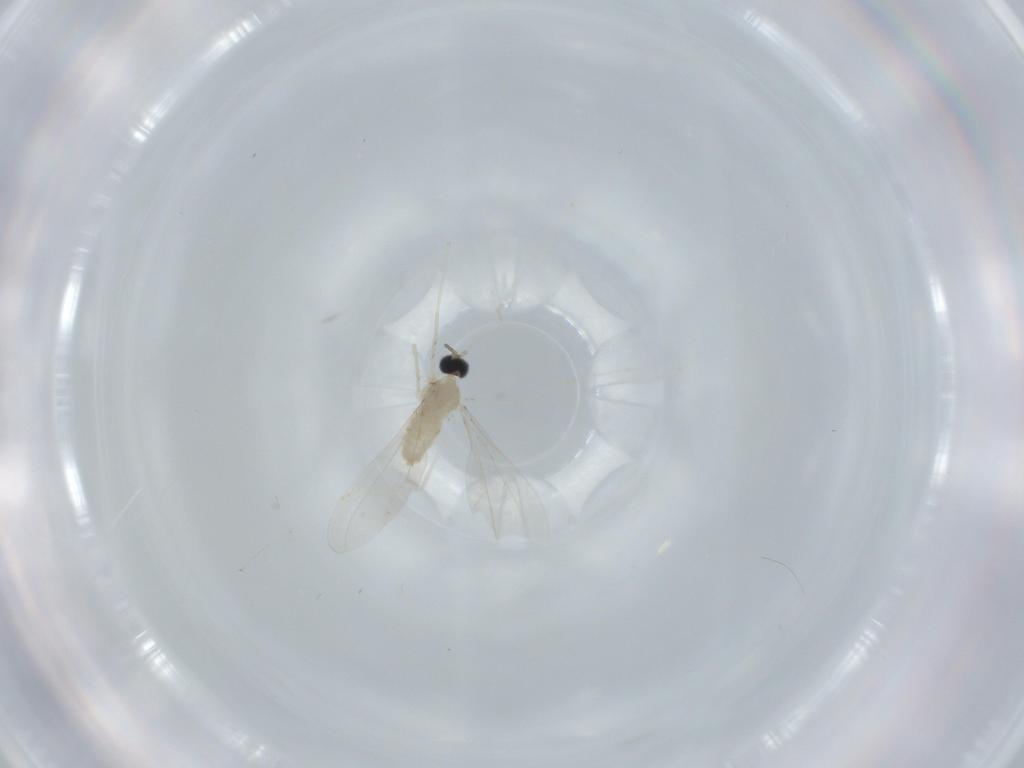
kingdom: Animalia
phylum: Arthropoda
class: Insecta
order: Diptera
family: Cecidomyiidae
